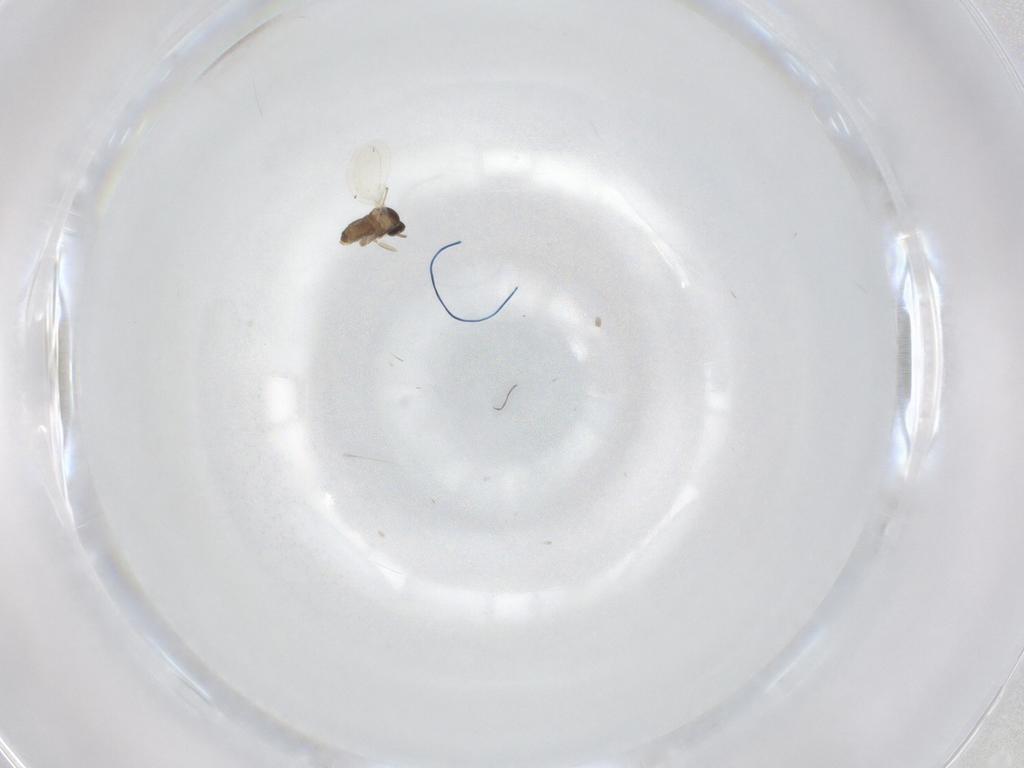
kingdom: Animalia
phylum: Arthropoda
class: Insecta
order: Diptera
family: Cecidomyiidae
